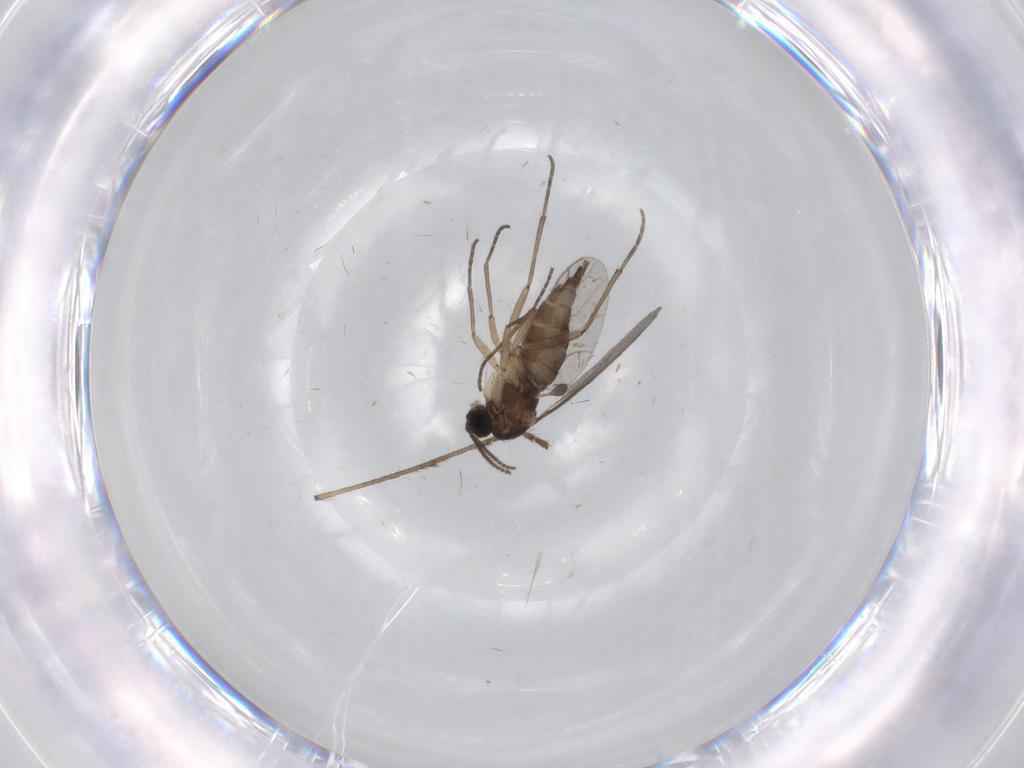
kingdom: Animalia
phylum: Arthropoda
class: Insecta
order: Diptera
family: Sciaridae
